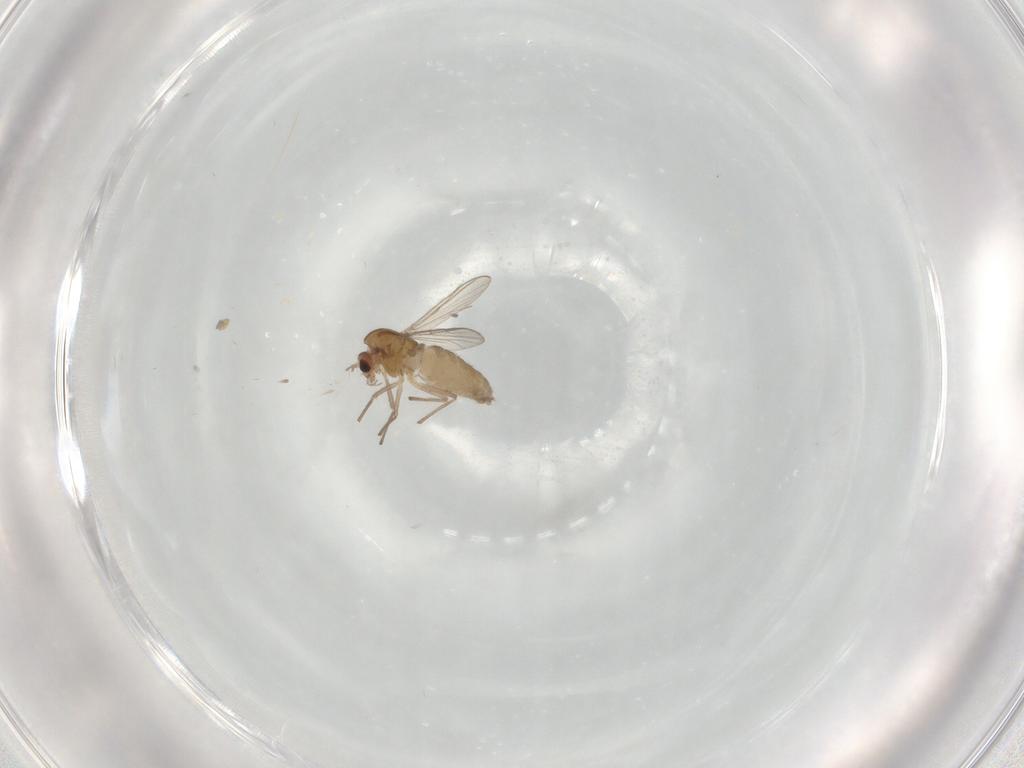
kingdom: Animalia
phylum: Arthropoda
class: Insecta
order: Diptera
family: Chironomidae
